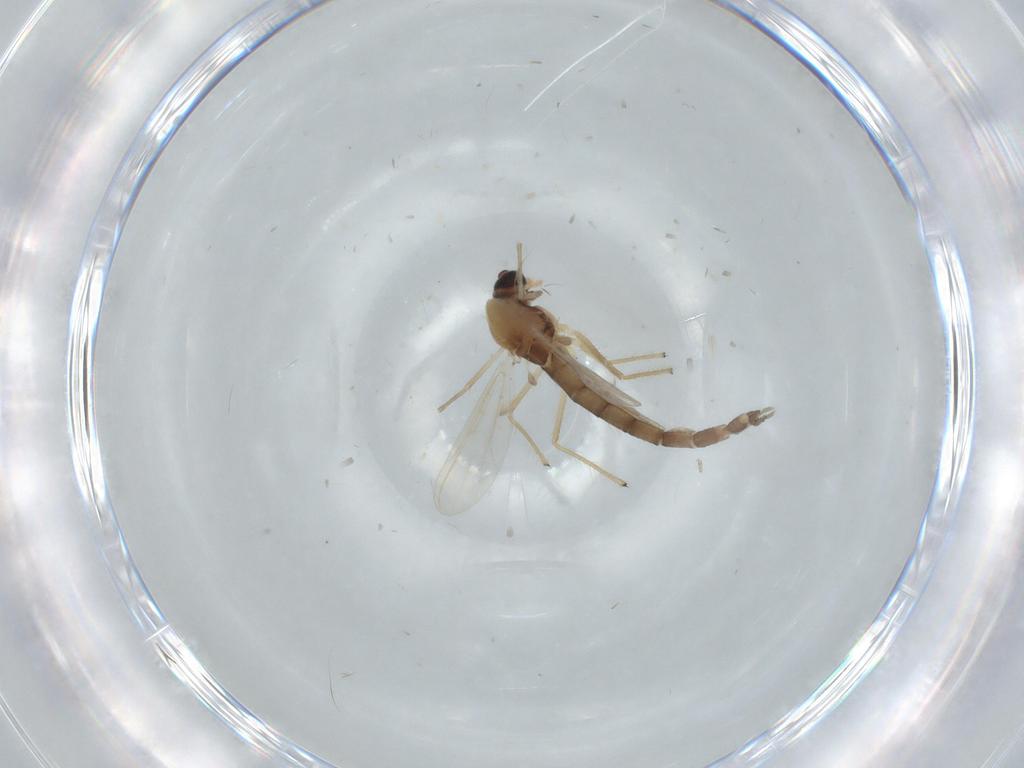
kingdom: Animalia
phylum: Arthropoda
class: Insecta
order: Diptera
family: Chironomidae
